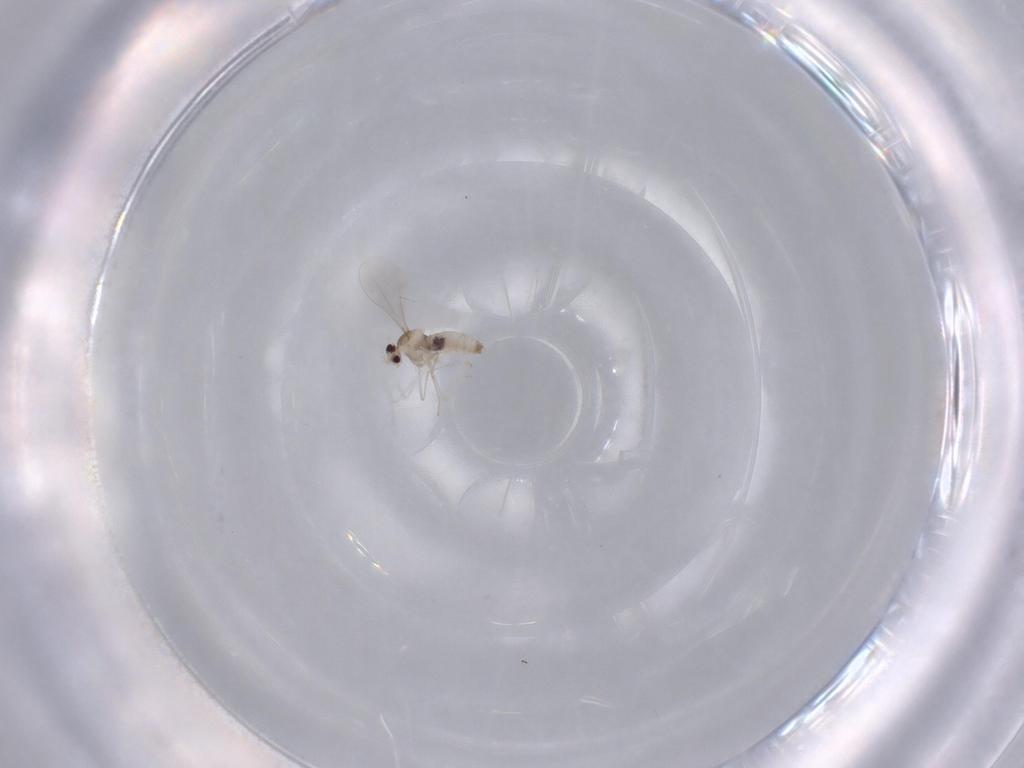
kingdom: Animalia
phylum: Arthropoda
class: Insecta
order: Diptera
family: Cecidomyiidae
